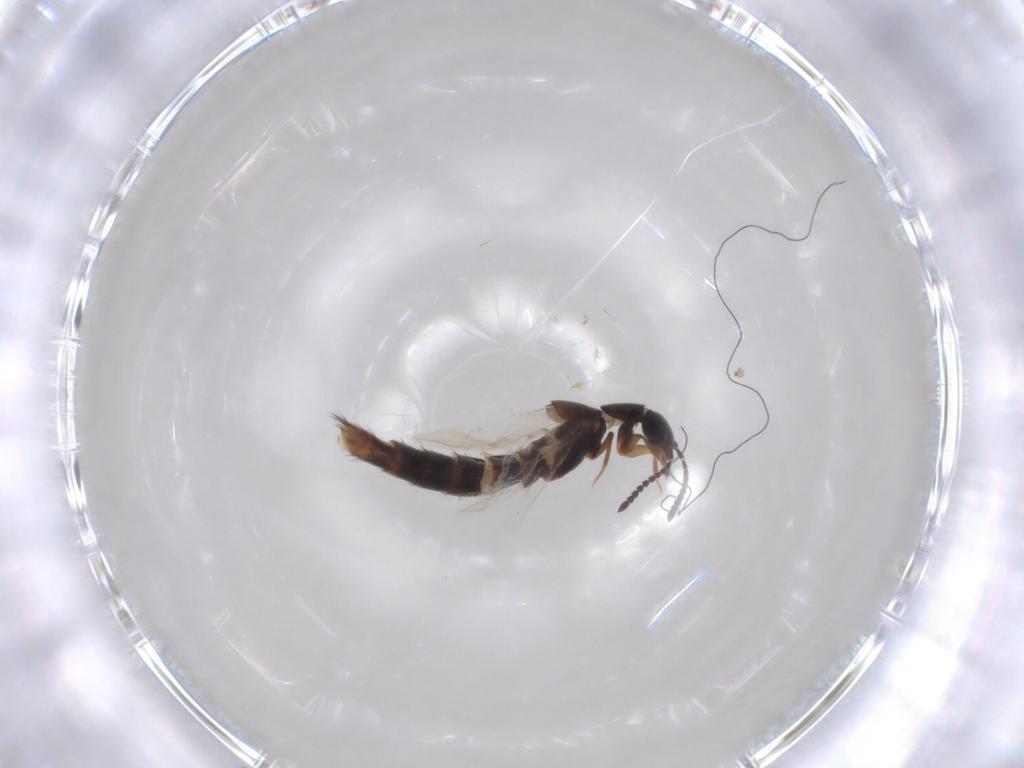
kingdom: Animalia
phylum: Arthropoda
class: Insecta
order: Coleoptera
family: Staphylinidae
